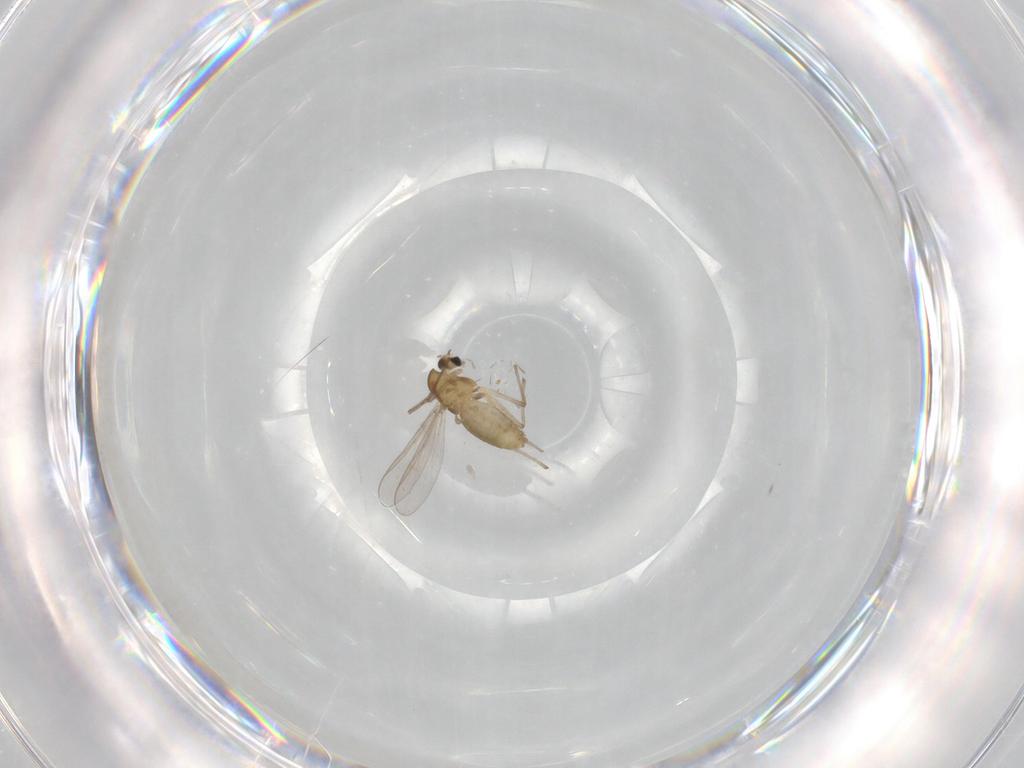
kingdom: Animalia
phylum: Arthropoda
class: Insecta
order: Diptera
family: Chironomidae
